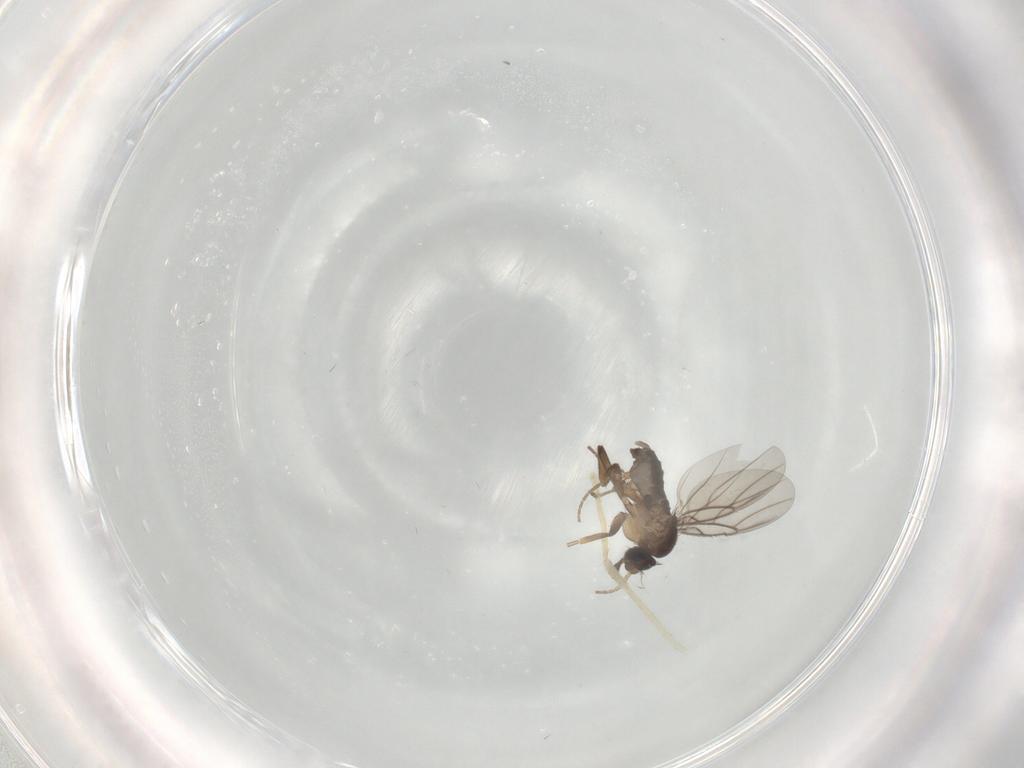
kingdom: Animalia
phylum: Arthropoda
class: Insecta
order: Diptera
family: Chironomidae
